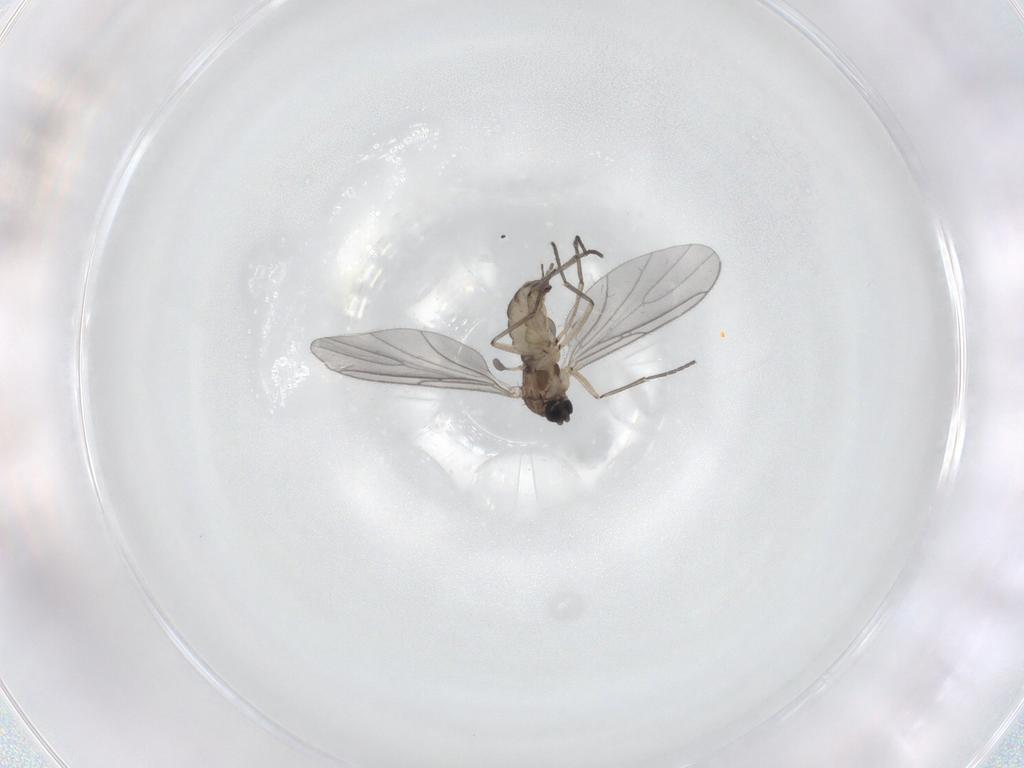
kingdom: Animalia
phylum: Arthropoda
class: Insecta
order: Diptera
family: Sciaridae
